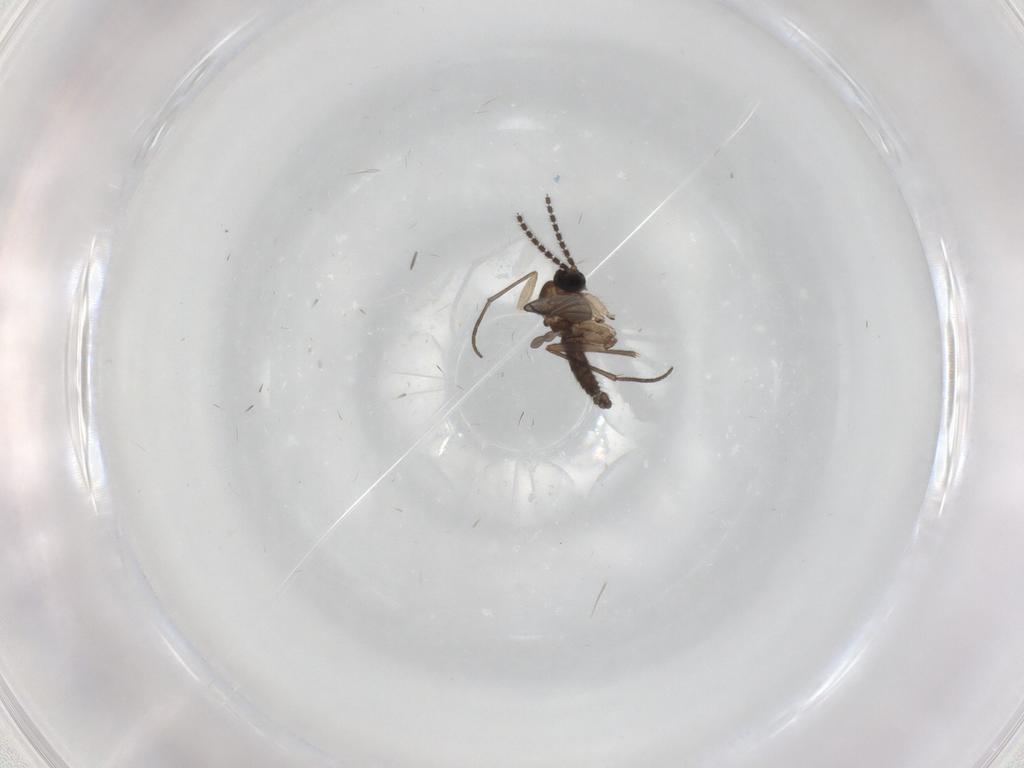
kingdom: Animalia
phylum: Arthropoda
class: Insecta
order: Diptera
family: Sciaridae
